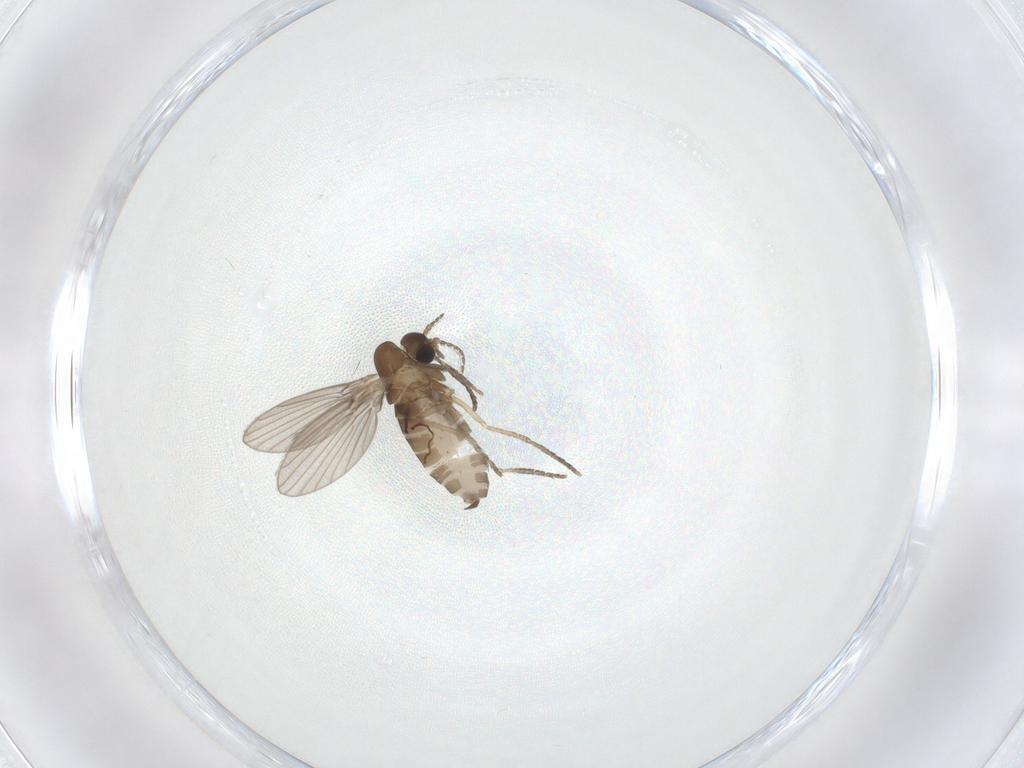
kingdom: Animalia
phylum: Arthropoda
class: Insecta
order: Diptera
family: Psychodidae
